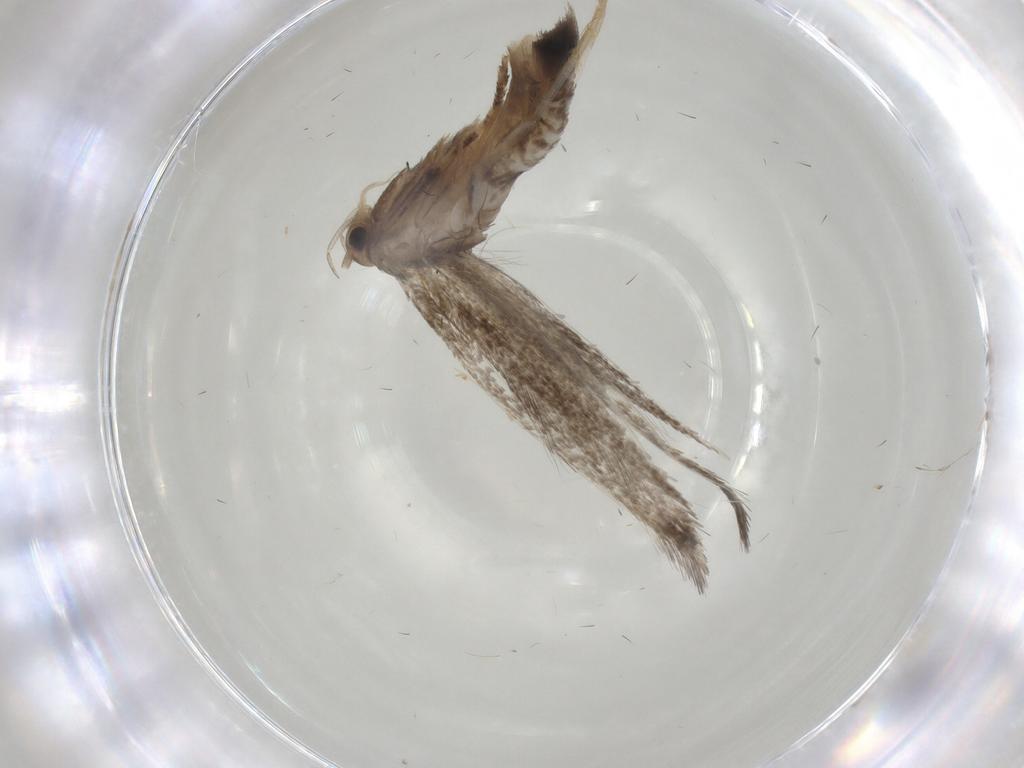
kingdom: Animalia
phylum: Arthropoda
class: Insecta
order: Lepidoptera
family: Elachistidae
